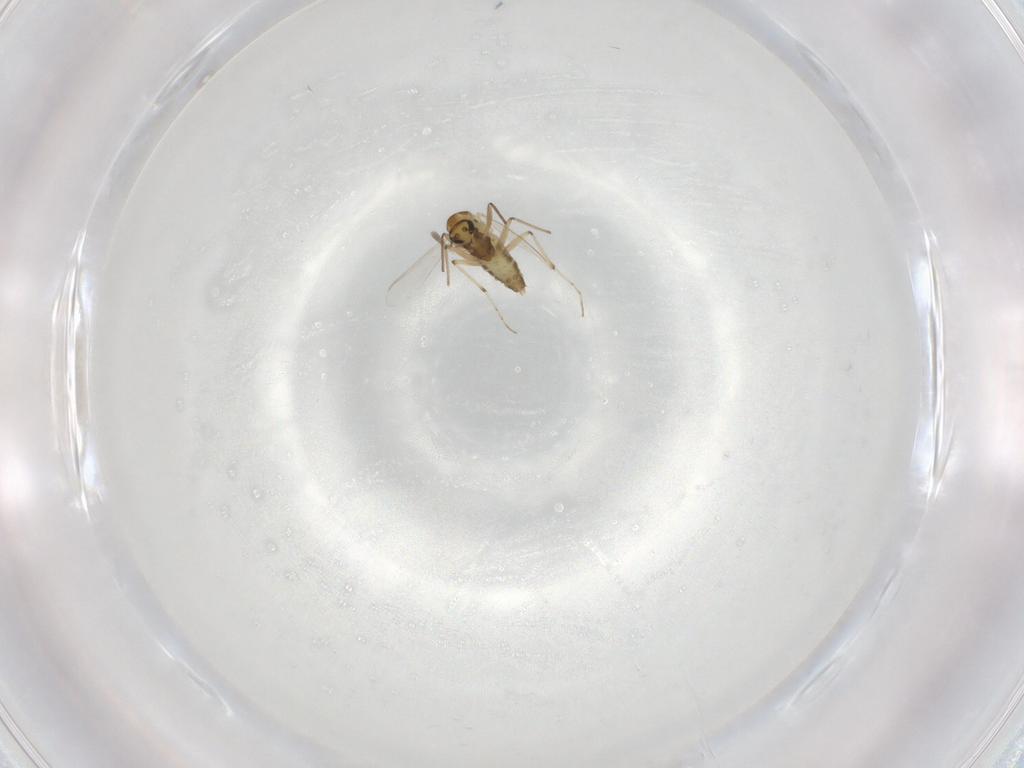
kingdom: Animalia
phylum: Arthropoda
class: Insecta
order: Diptera
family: Chironomidae
